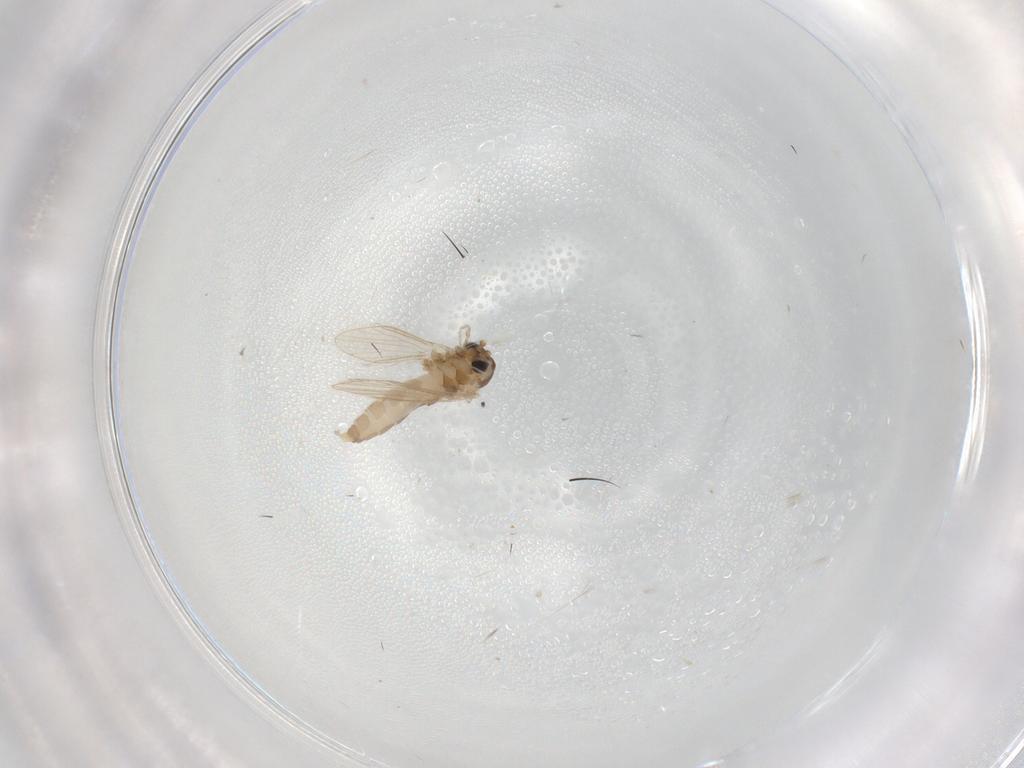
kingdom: Animalia
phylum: Arthropoda
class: Insecta
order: Diptera
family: Psychodidae
